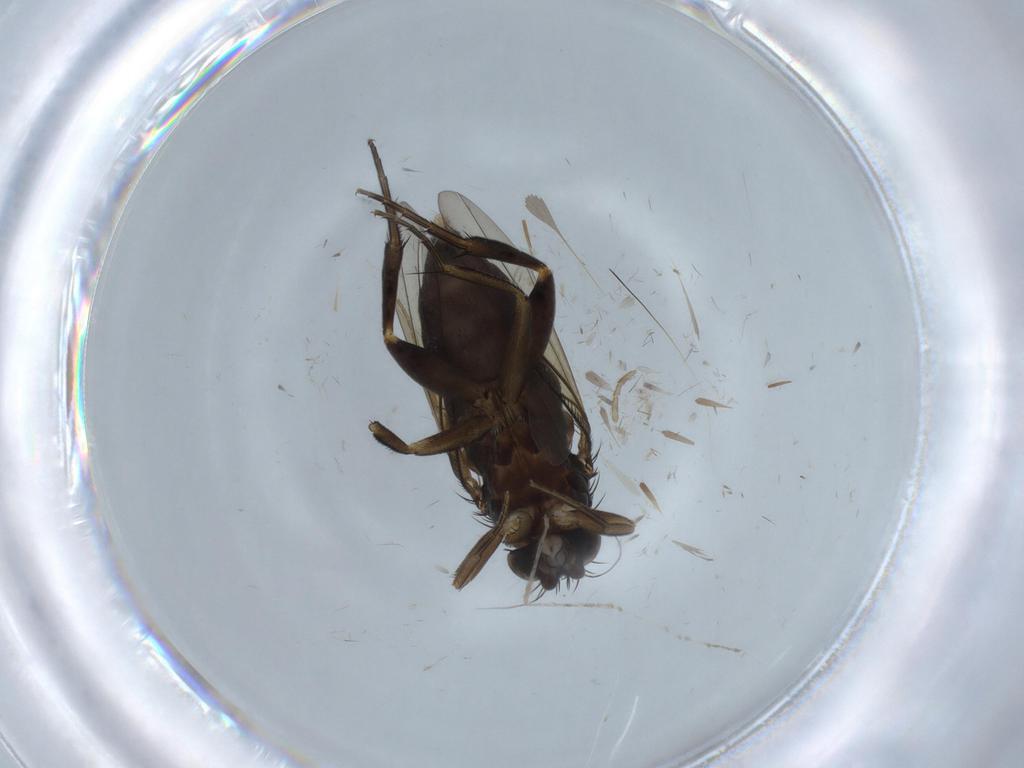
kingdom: Animalia
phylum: Arthropoda
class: Insecta
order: Diptera
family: Phoridae
